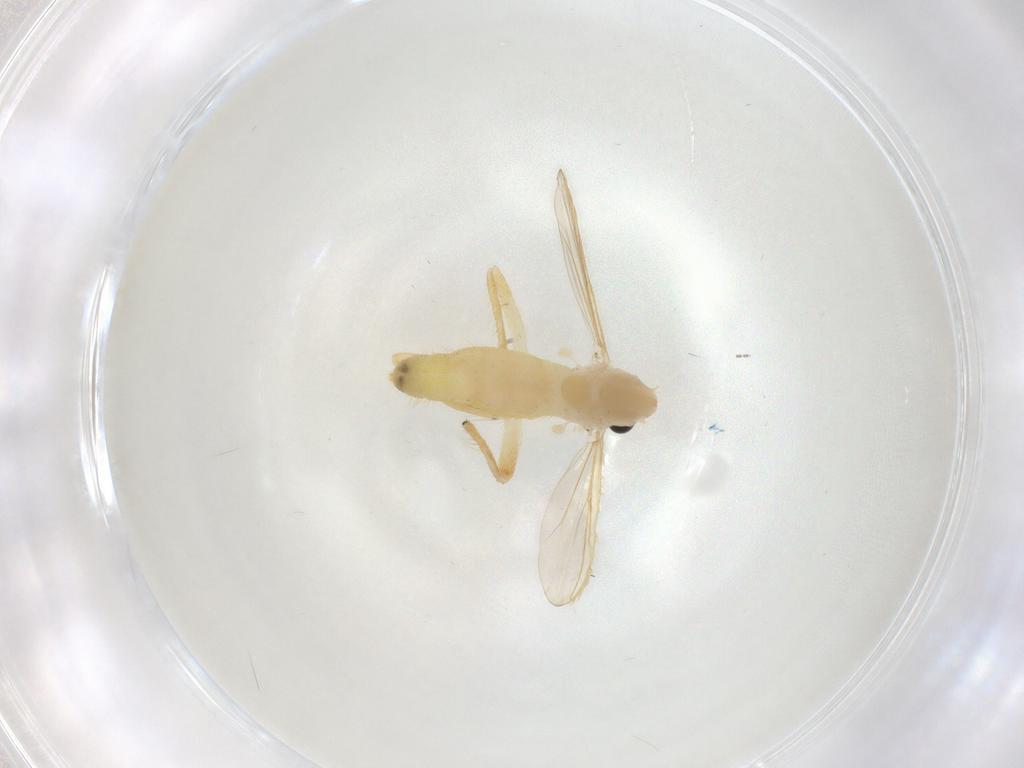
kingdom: Animalia
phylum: Arthropoda
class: Insecta
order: Diptera
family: Chironomidae
